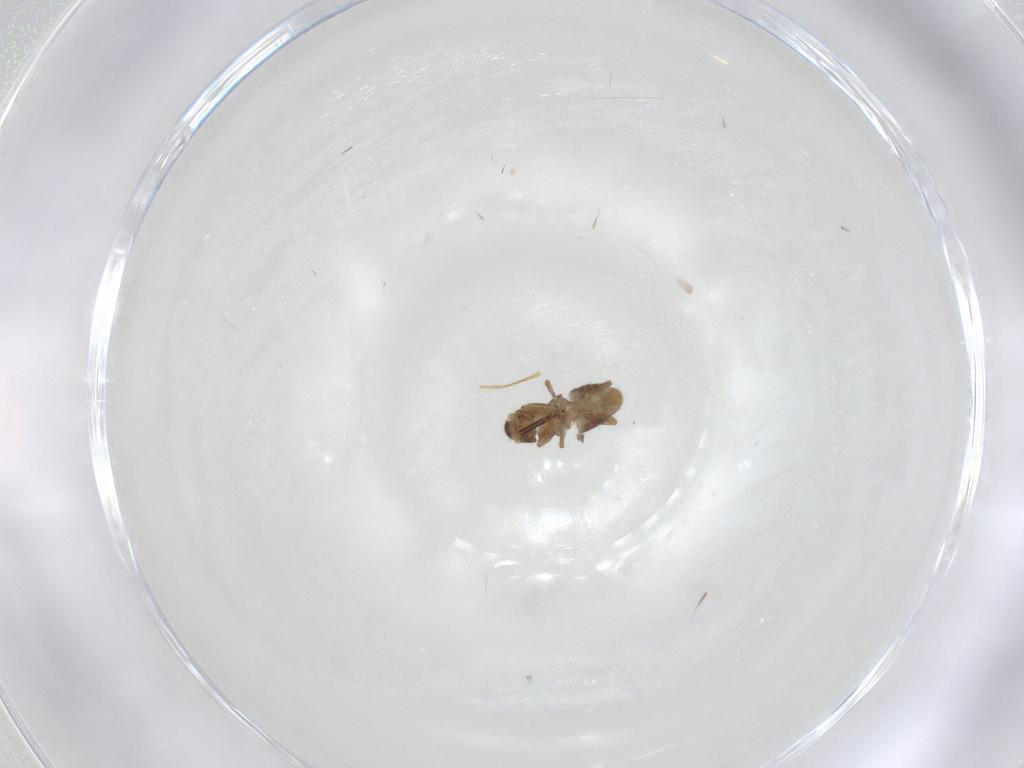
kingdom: Animalia
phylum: Arthropoda
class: Insecta
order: Diptera
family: Phoridae
